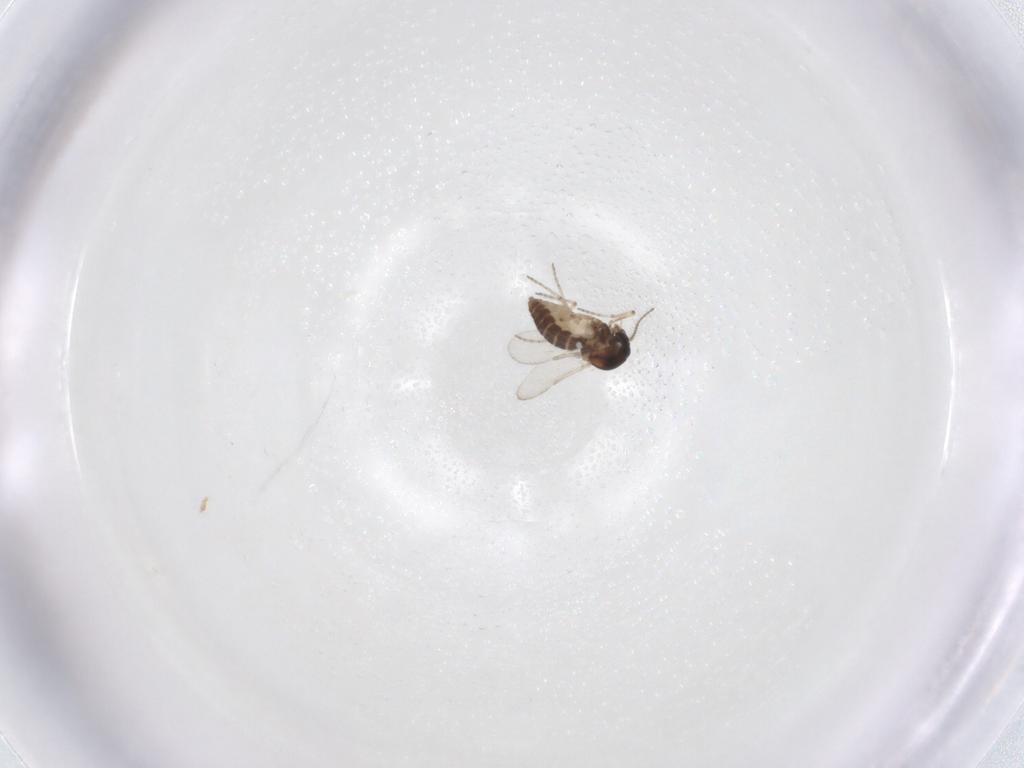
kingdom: Animalia
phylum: Arthropoda
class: Insecta
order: Diptera
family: Ceratopogonidae
